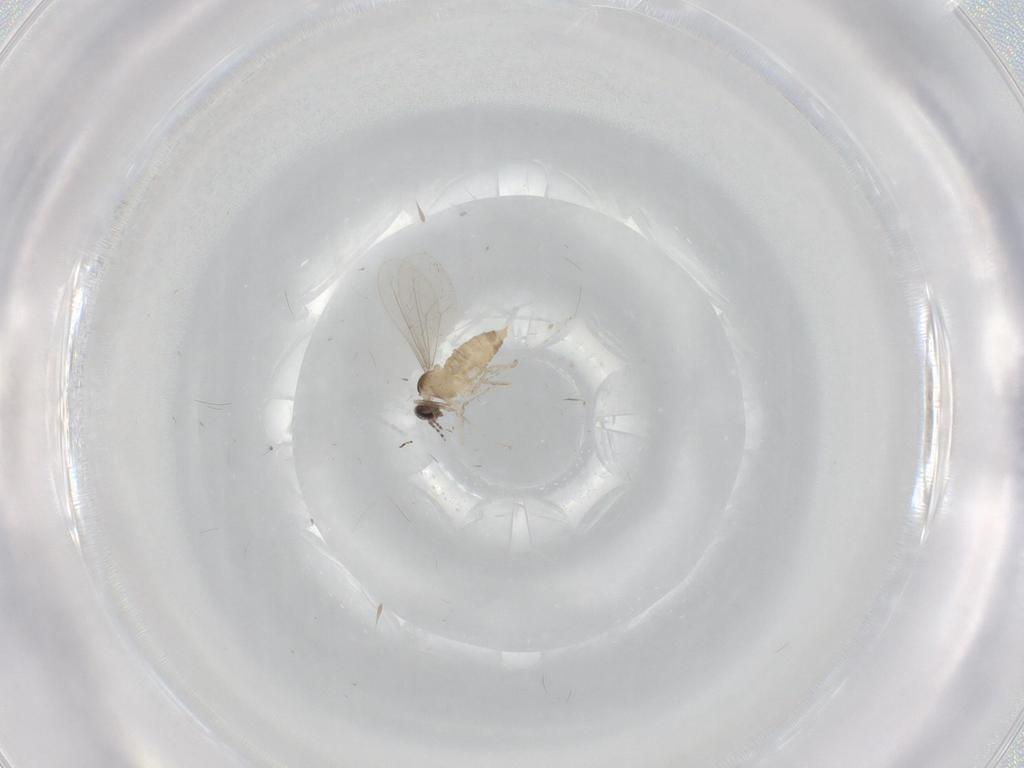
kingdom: Animalia
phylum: Arthropoda
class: Insecta
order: Diptera
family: Cecidomyiidae
